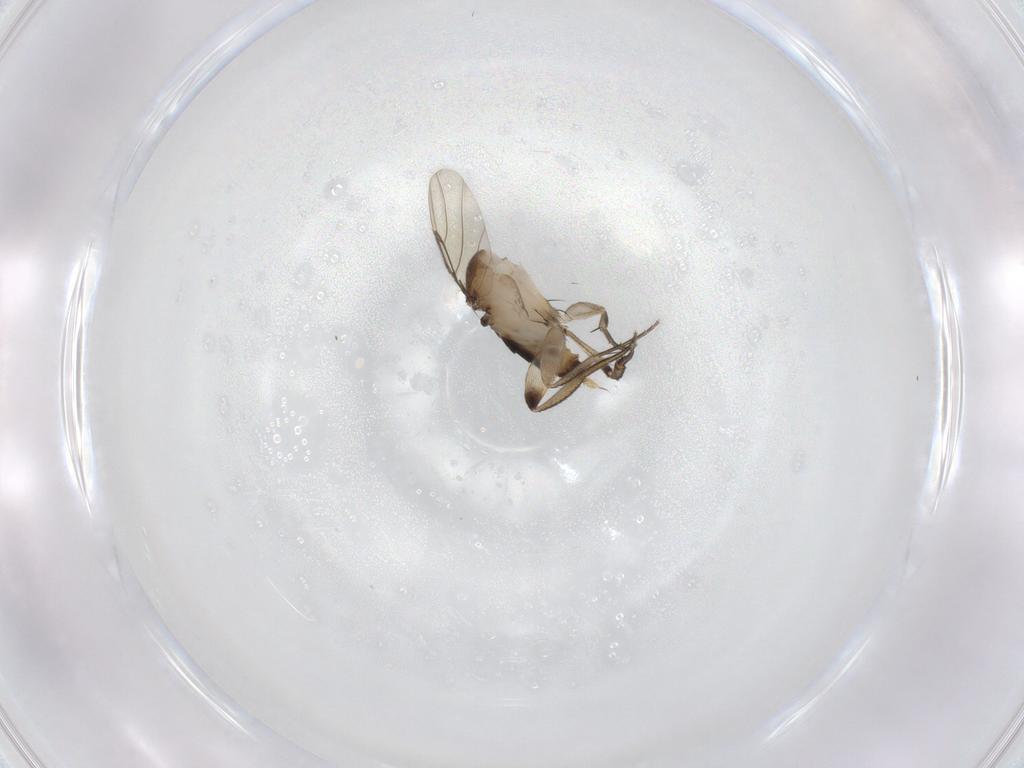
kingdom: Animalia
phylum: Arthropoda
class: Insecta
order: Diptera
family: Phoridae
